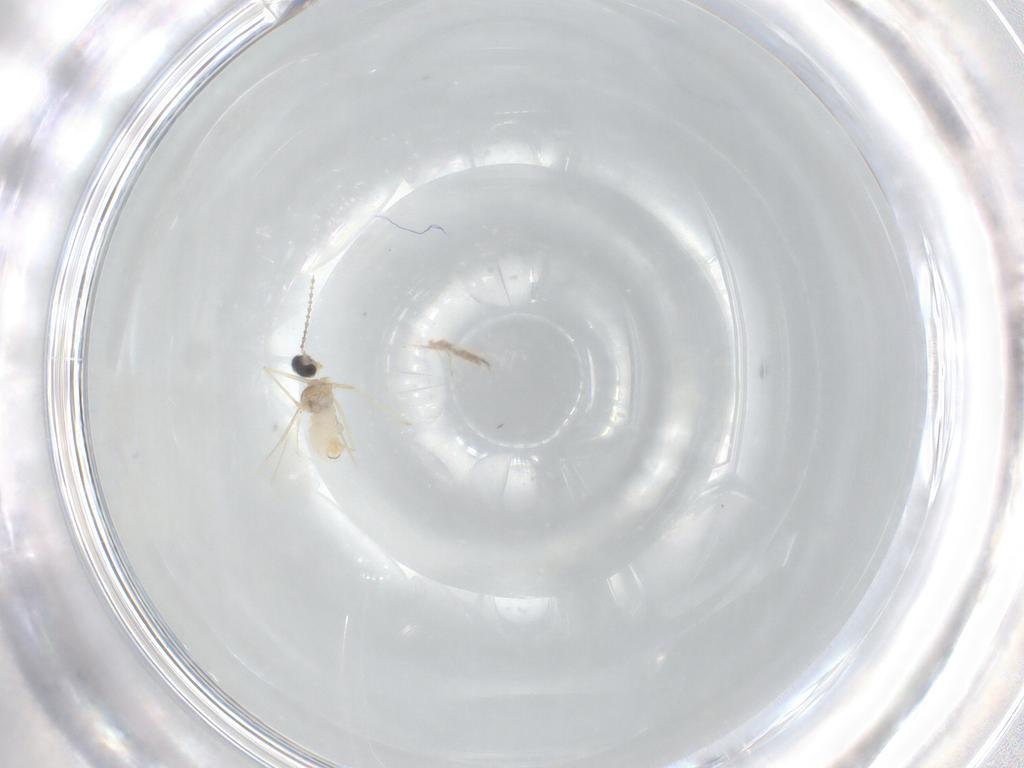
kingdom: Animalia
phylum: Arthropoda
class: Insecta
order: Diptera
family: Cecidomyiidae
